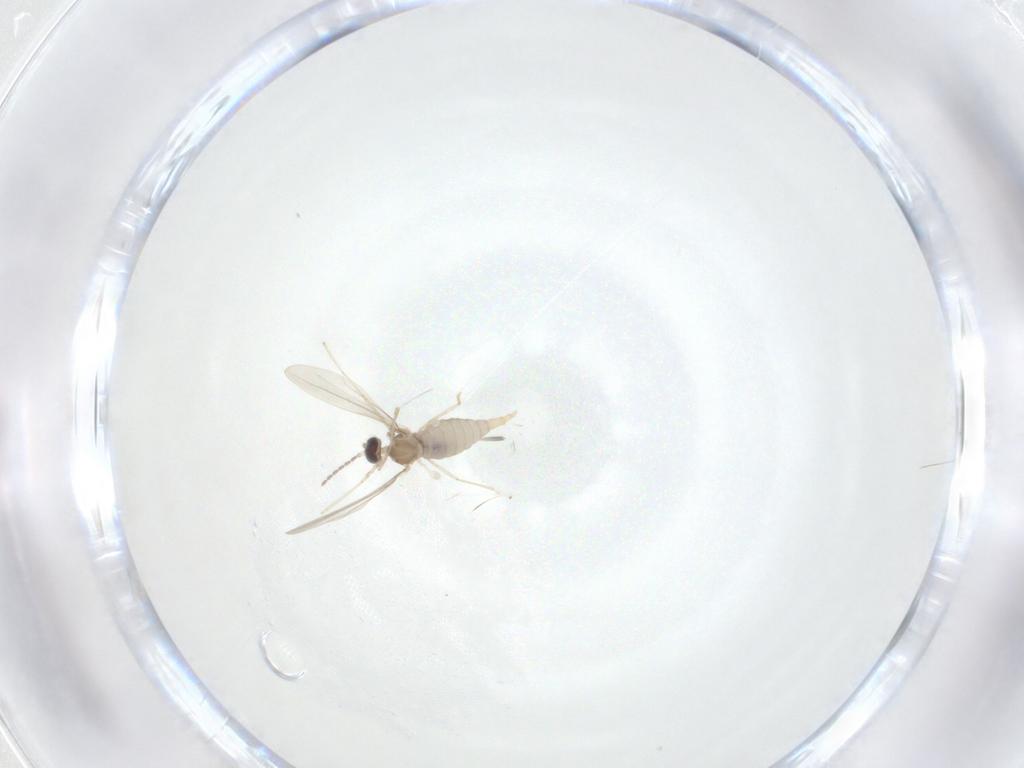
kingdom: Animalia
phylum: Arthropoda
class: Insecta
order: Diptera
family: Cecidomyiidae
